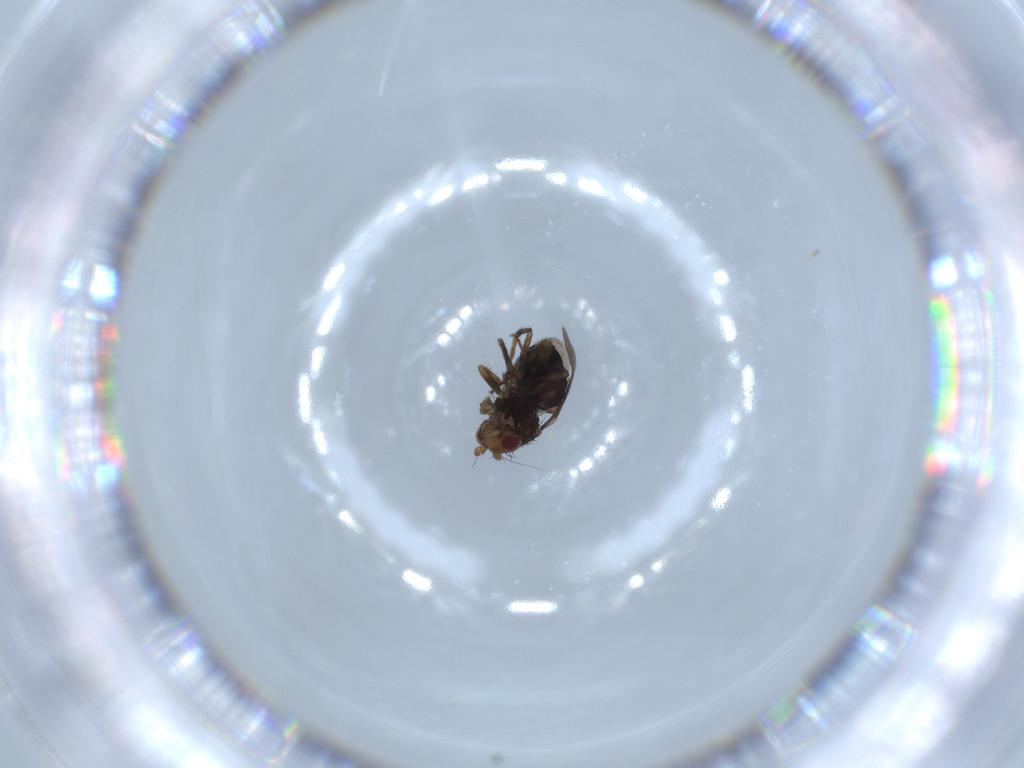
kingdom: Animalia
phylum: Arthropoda
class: Insecta
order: Diptera
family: Sphaeroceridae
